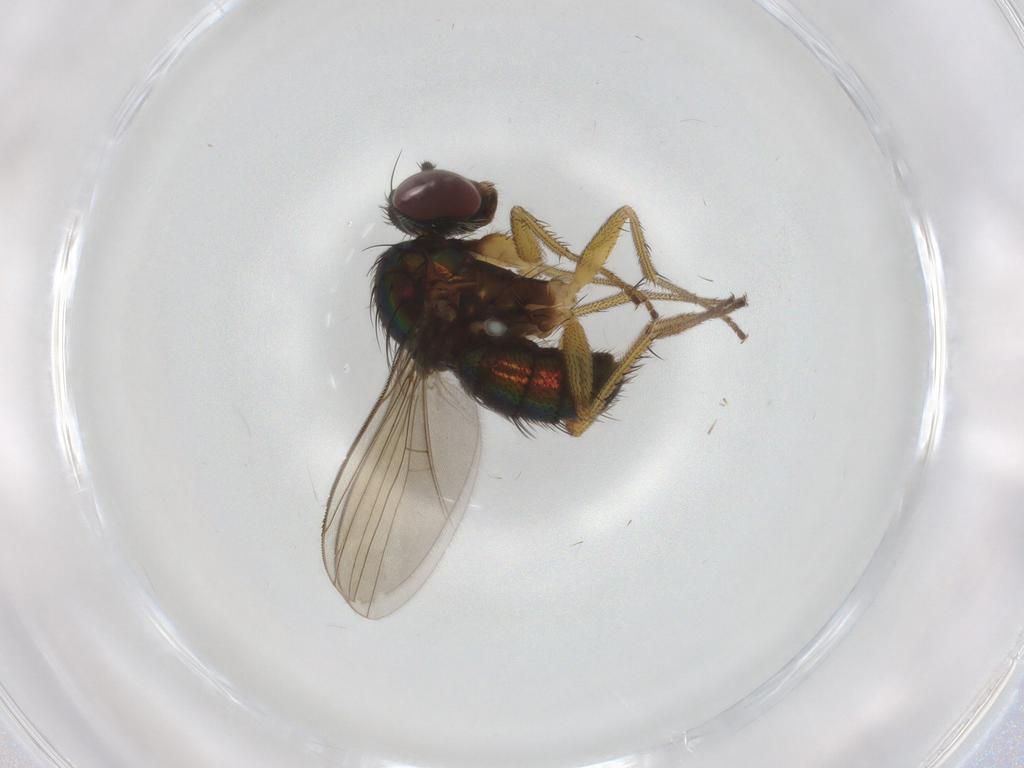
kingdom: Animalia
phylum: Arthropoda
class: Insecta
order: Diptera
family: Dolichopodidae
